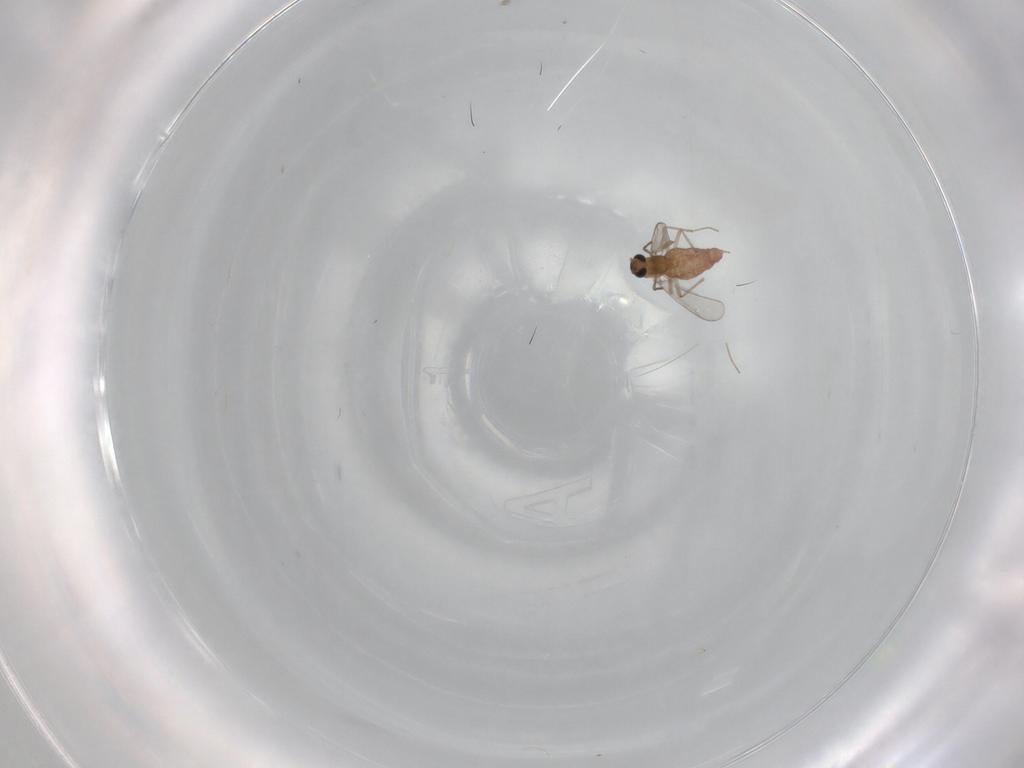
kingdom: Animalia
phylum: Arthropoda
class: Insecta
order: Diptera
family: Chironomidae
